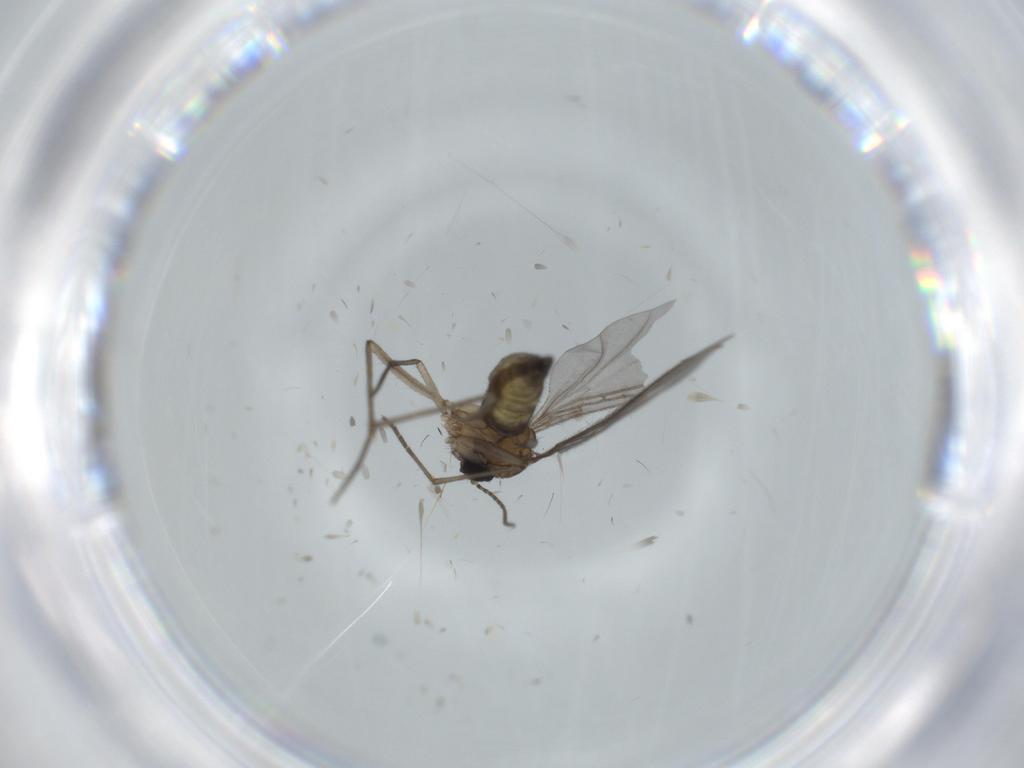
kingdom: Animalia
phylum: Arthropoda
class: Insecta
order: Diptera
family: Sciaridae
